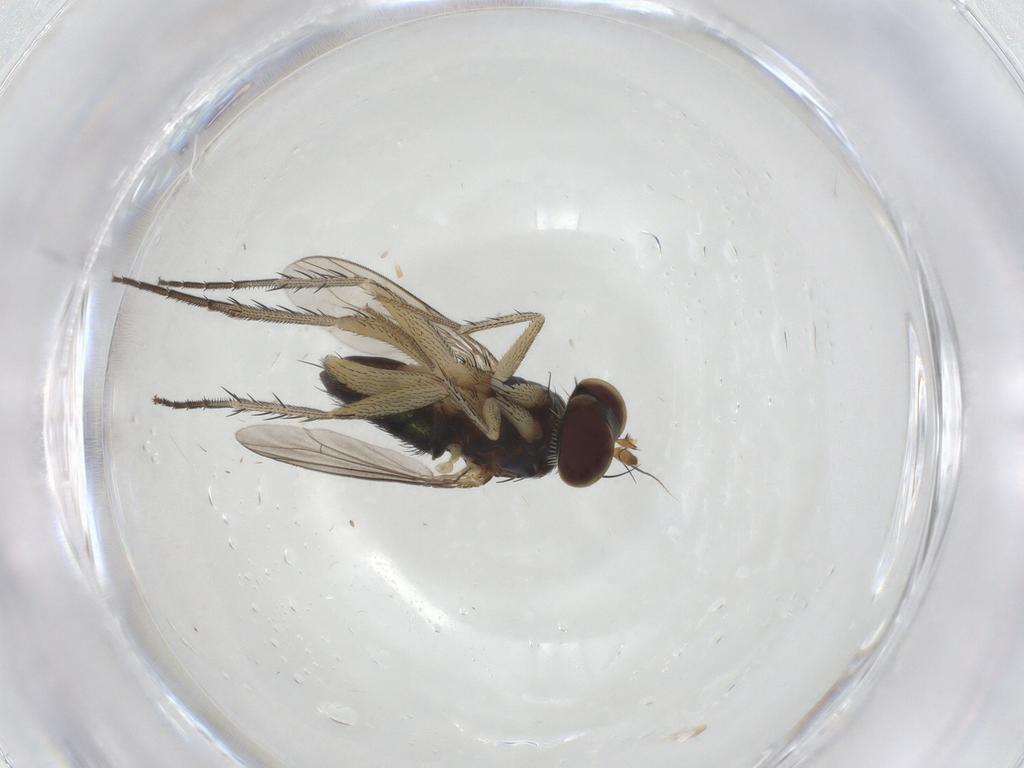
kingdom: Animalia
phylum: Arthropoda
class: Insecta
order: Diptera
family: Dolichopodidae
